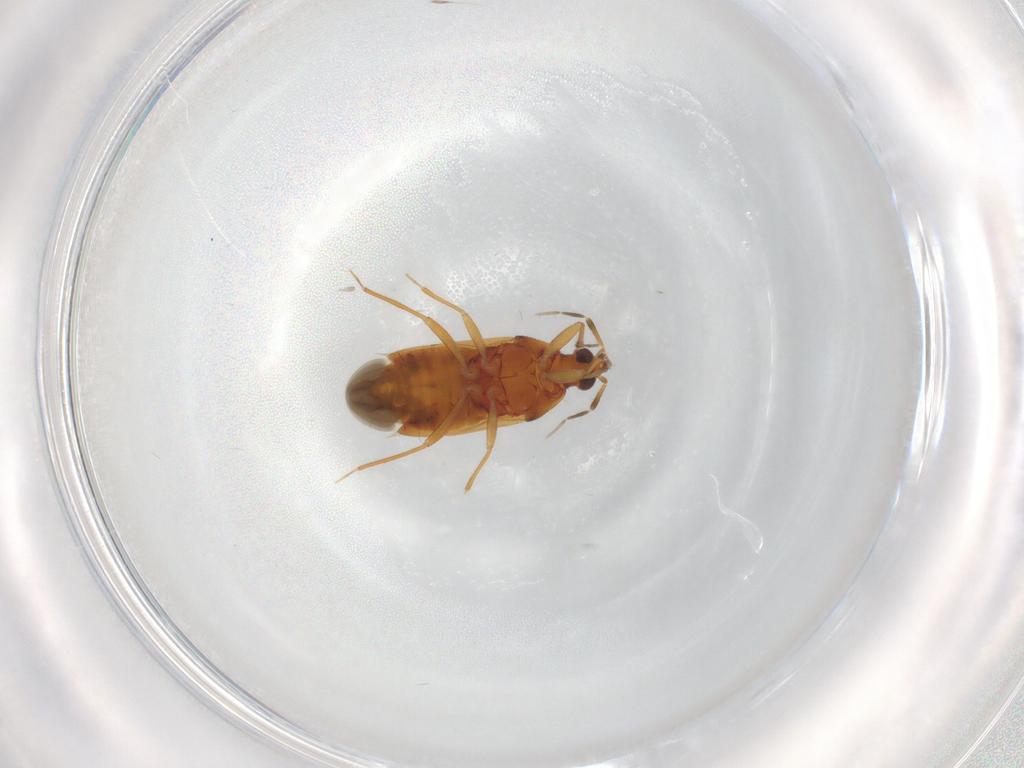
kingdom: Animalia
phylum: Arthropoda
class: Insecta
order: Hemiptera
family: Anthocoridae
